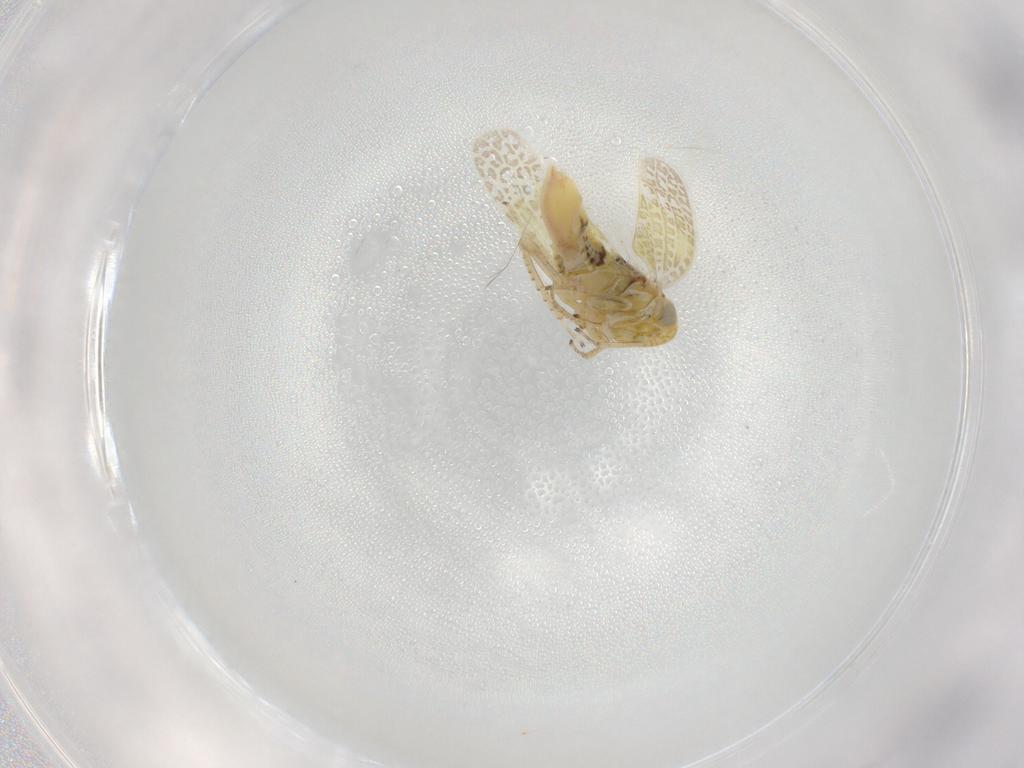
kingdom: Animalia
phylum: Arthropoda
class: Insecta
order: Hemiptera
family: Cicadellidae
